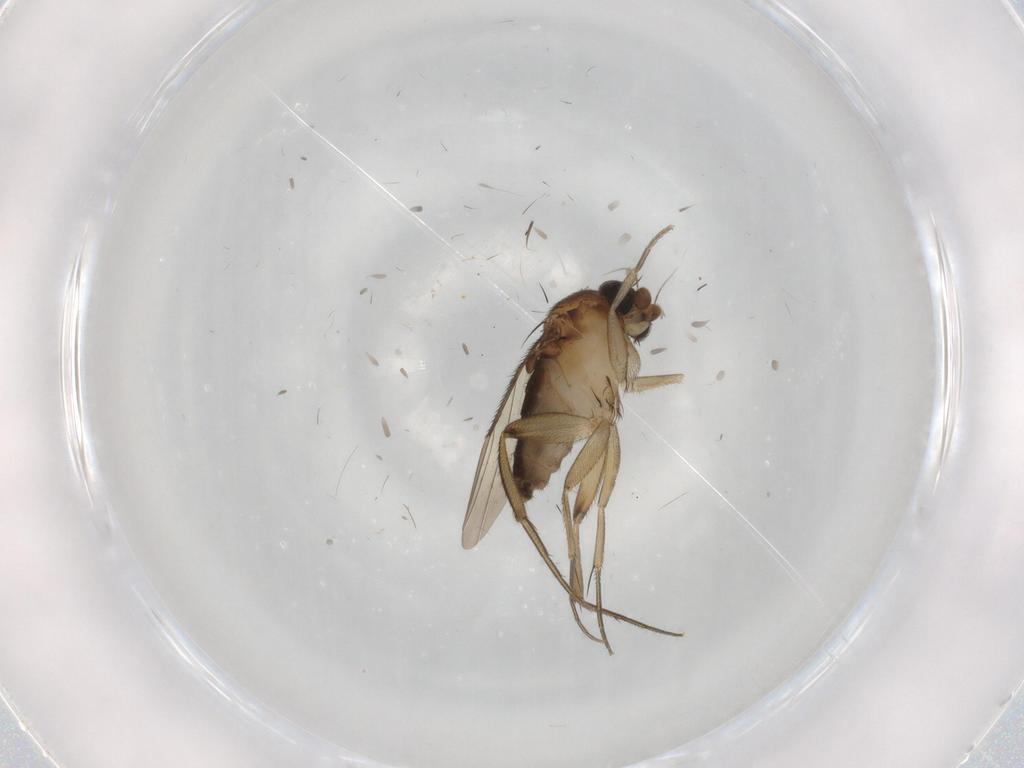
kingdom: Animalia
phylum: Arthropoda
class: Insecta
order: Diptera
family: Phoridae
